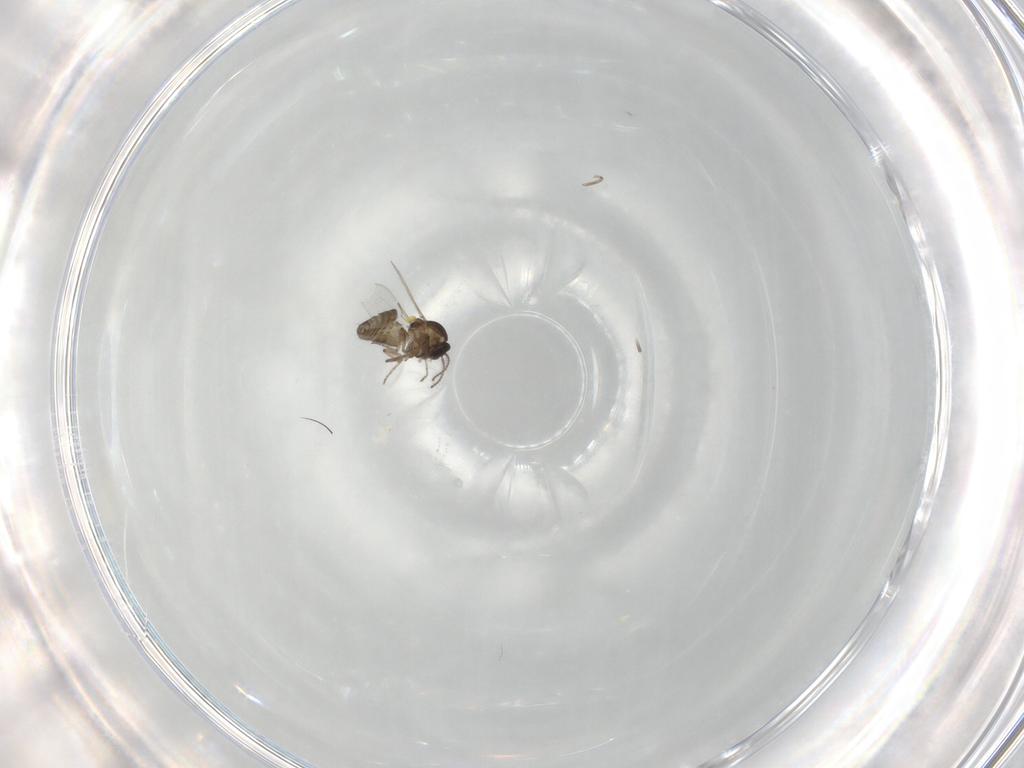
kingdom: Animalia
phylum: Arthropoda
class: Insecta
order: Diptera
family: Ceratopogonidae
